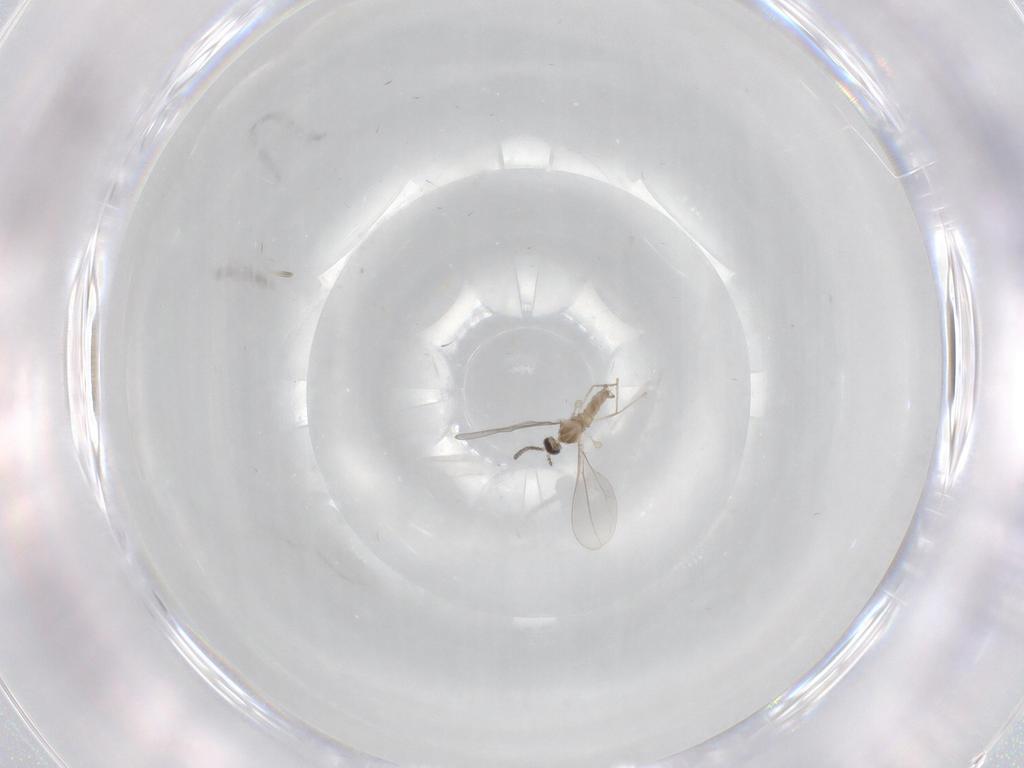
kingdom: Animalia
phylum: Arthropoda
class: Insecta
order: Diptera
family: Cecidomyiidae
